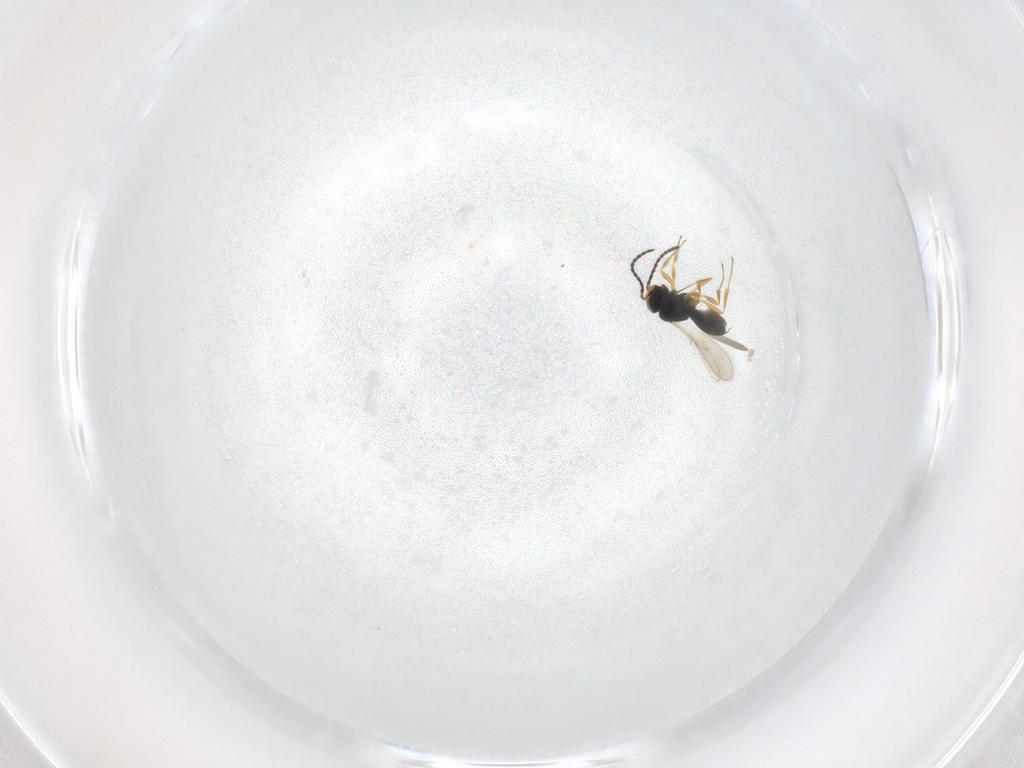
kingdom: Animalia
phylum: Arthropoda
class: Insecta
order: Hymenoptera
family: Scelionidae
